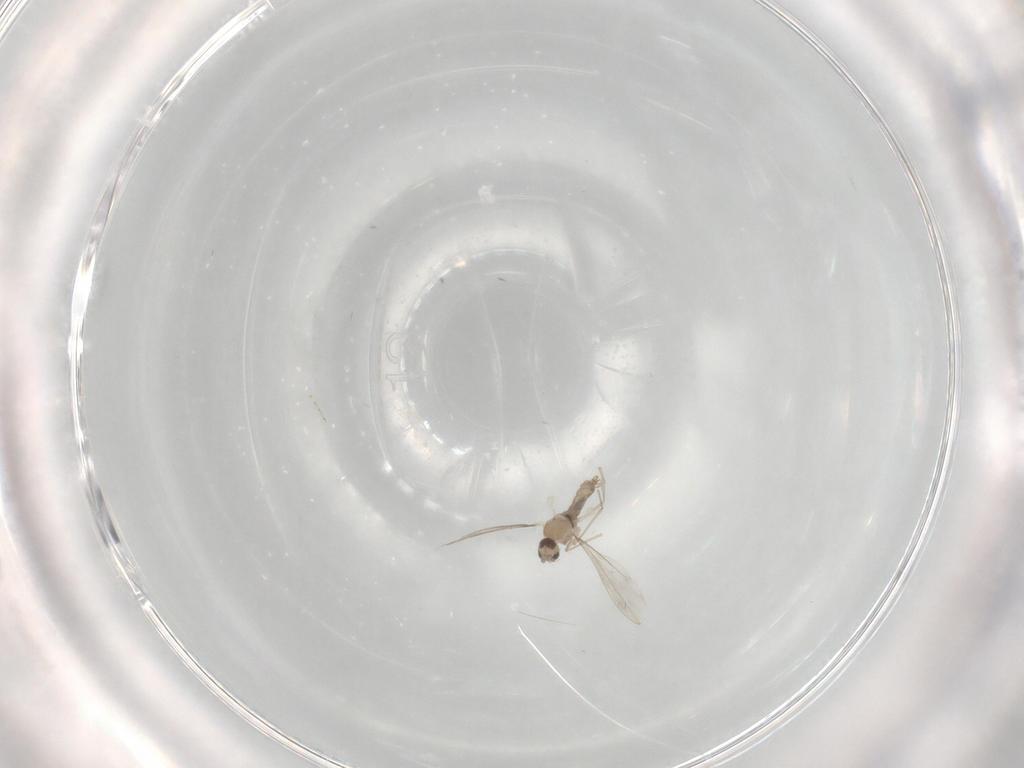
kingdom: Animalia
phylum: Arthropoda
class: Insecta
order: Diptera
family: Cecidomyiidae
